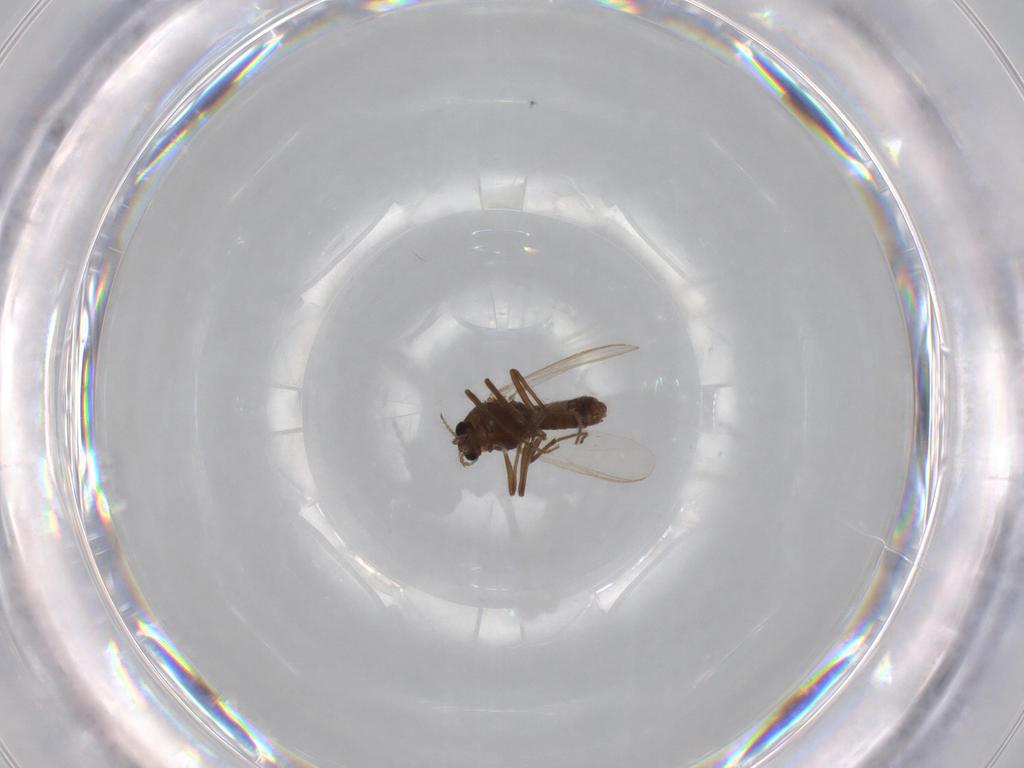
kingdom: Animalia
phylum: Arthropoda
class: Insecta
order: Diptera
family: Chironomidae
